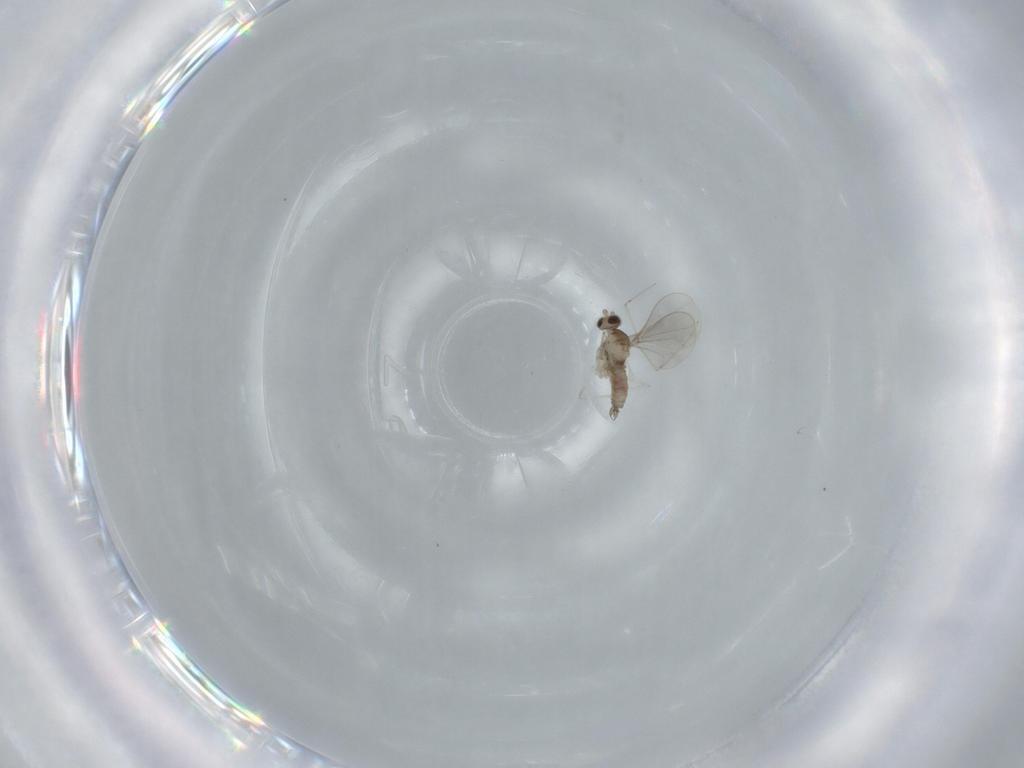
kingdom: Animalia
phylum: Arthropoda
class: Insecta
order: Diptera
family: Cecidomyiidae
